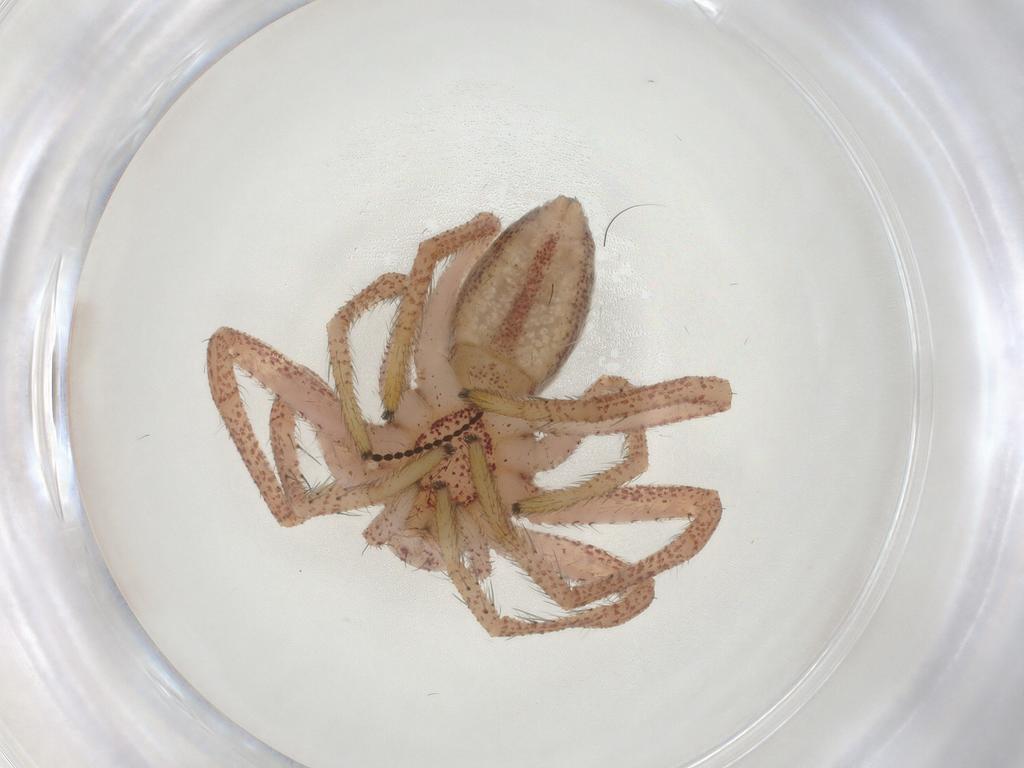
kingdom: Animalia
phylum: Arthropoda
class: Arachnida
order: Araneae
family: Philodromidae
